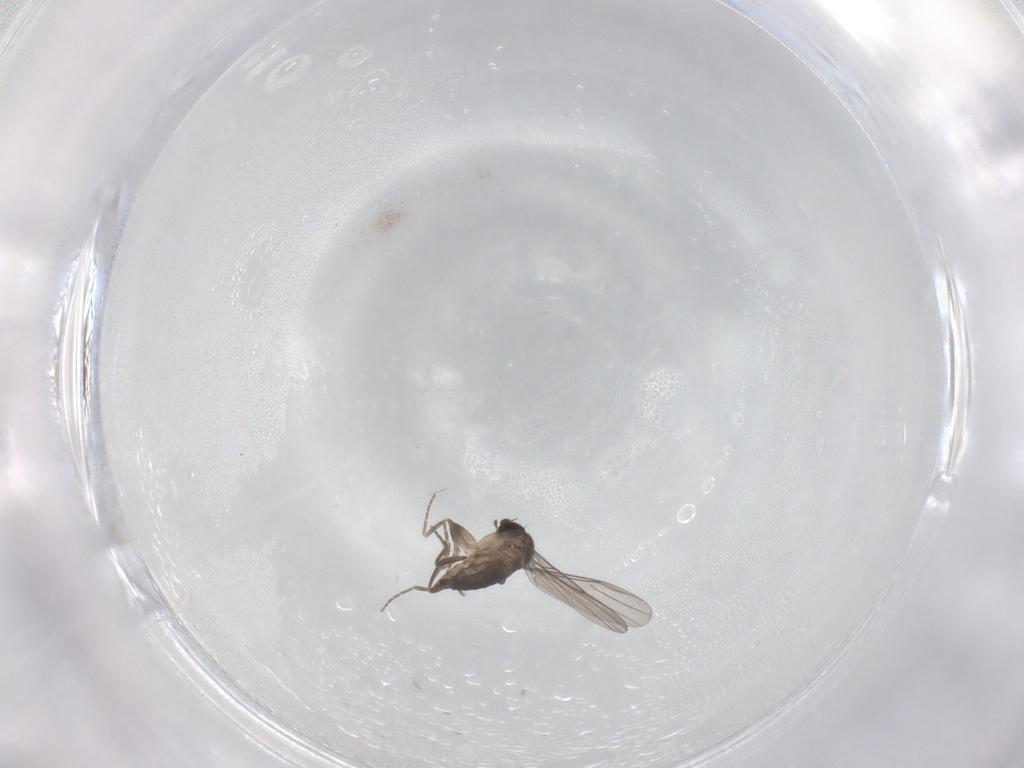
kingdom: Animalia
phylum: Arthropoda
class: Insecta
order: Diptera
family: Phoridae
